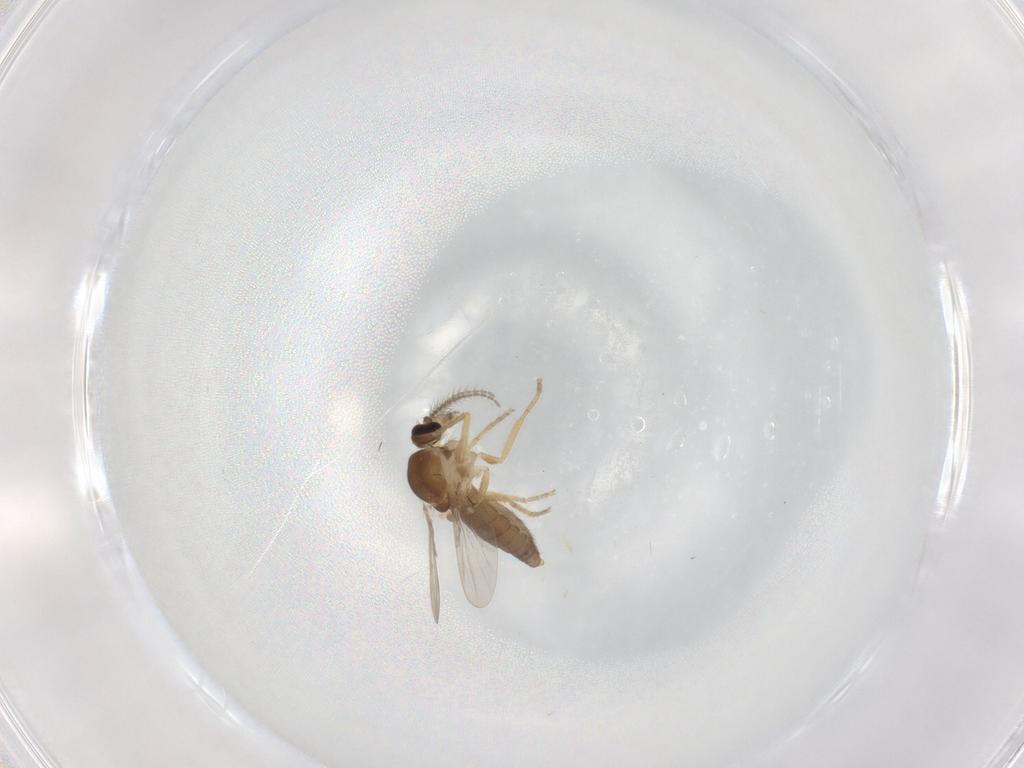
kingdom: Animalia
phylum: Arthropoda
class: Insecta
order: Diptera
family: Ceratopogonidae
